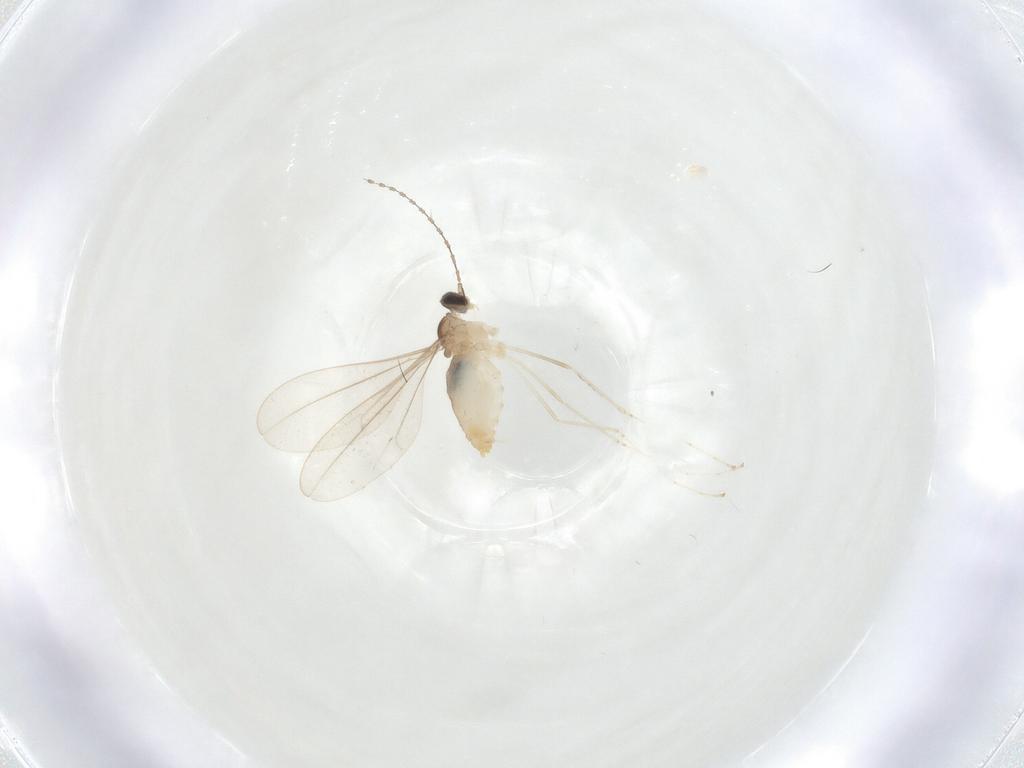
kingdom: Animalia
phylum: Arthropoda
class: Insecta
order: Diptera
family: Cecidomyiidae
